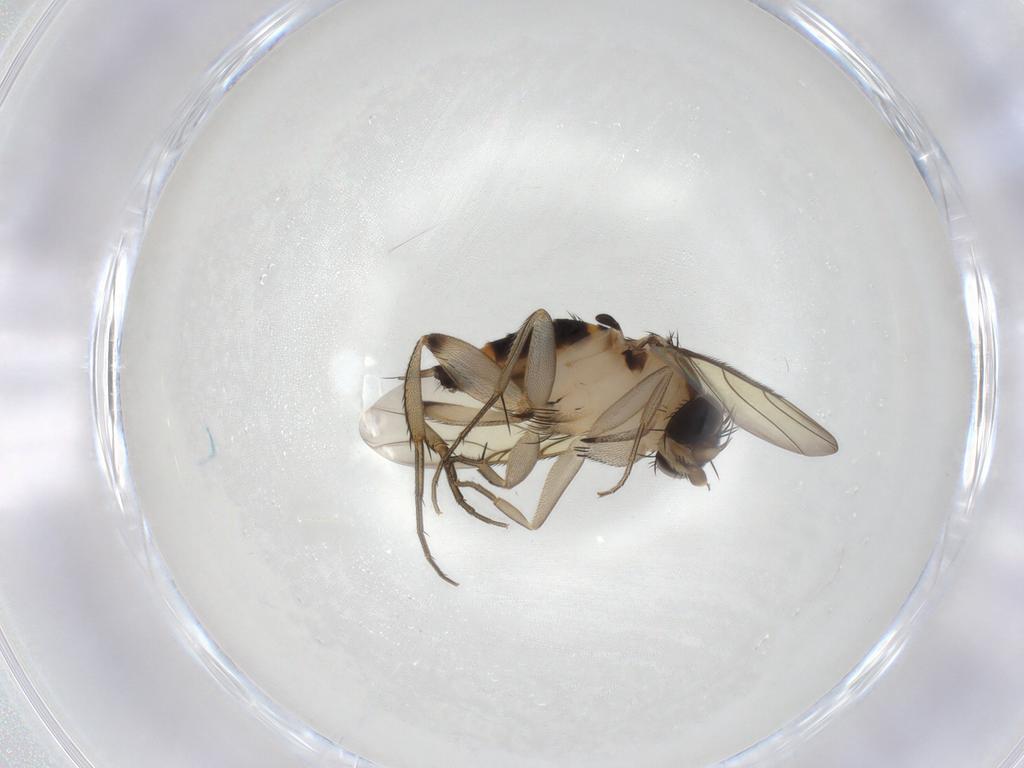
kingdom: Animalia
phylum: Arthropoda
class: Insecta
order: Diptera
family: Phoridae
